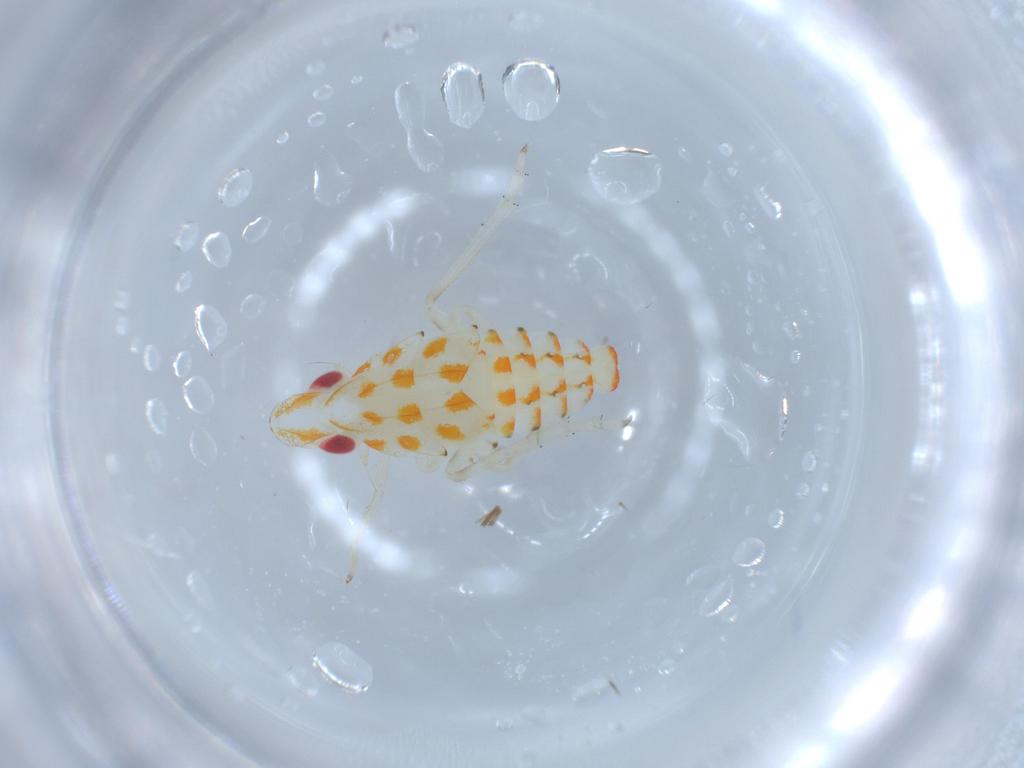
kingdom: Animalia
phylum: Arthropoda
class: Insecta
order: Hemiptera
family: Tropiduchidae
